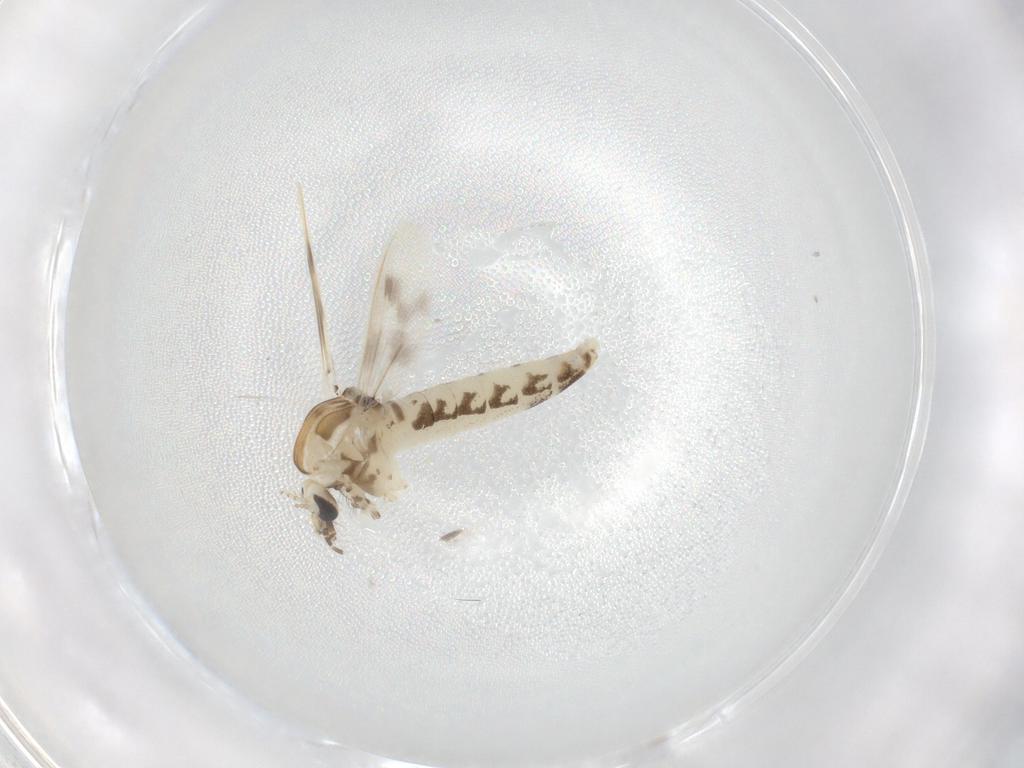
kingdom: Animalia
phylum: Arthropoda
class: Insecta
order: Diptera
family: Corethrellidae
